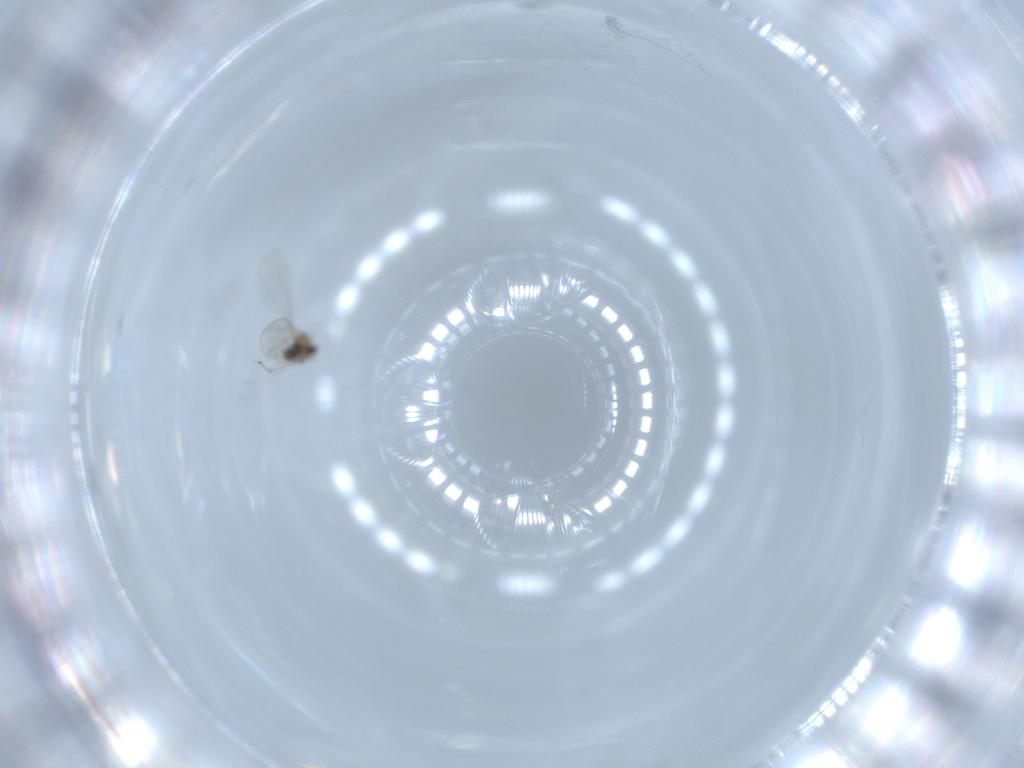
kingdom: Animalia
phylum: Arthropoda
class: Insecta
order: Diptera
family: Cecidomyiidae
